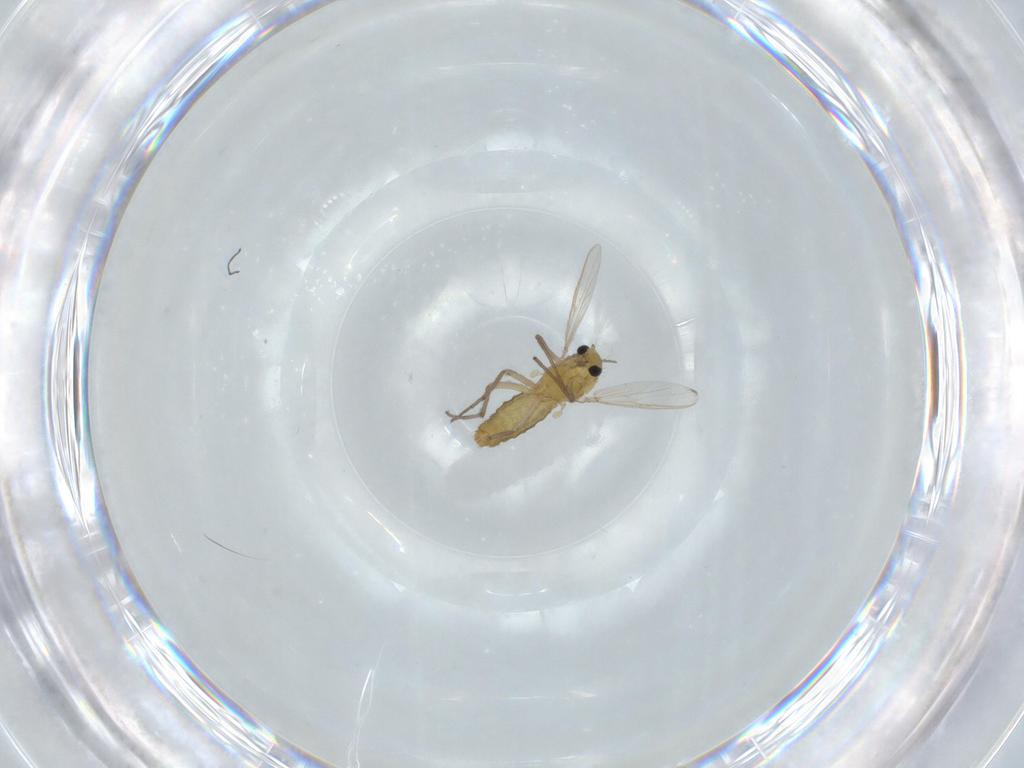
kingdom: Animalia
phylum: Arthropoda
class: Insecta
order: Diptera
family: Chironomidae
